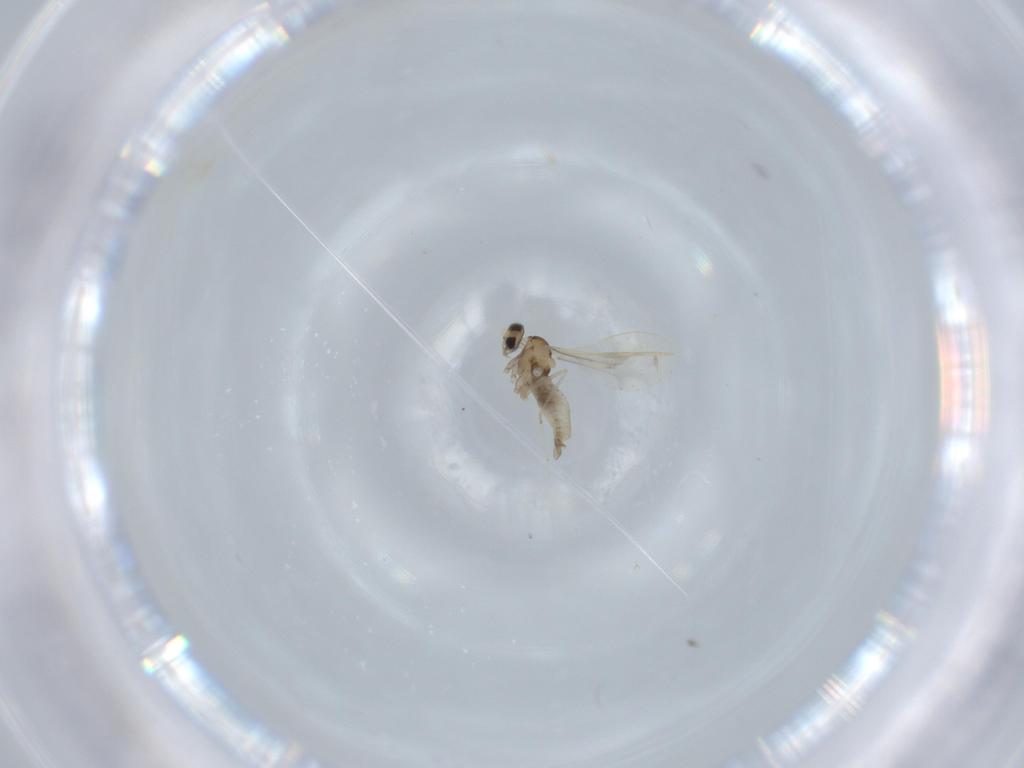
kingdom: Animalia
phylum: Arthropoda
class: Insecta
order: Diptera
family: Cecidomyiidae
